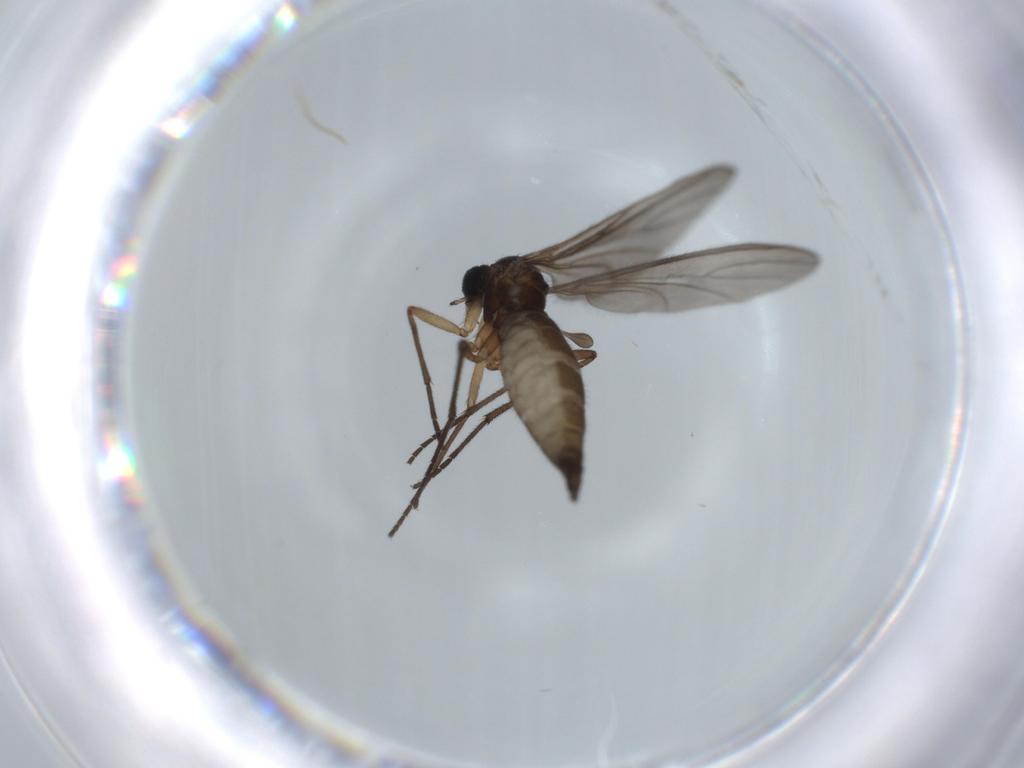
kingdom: Animalia
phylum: Arthropoda
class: Insecta
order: Diptera
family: Sciaridae
